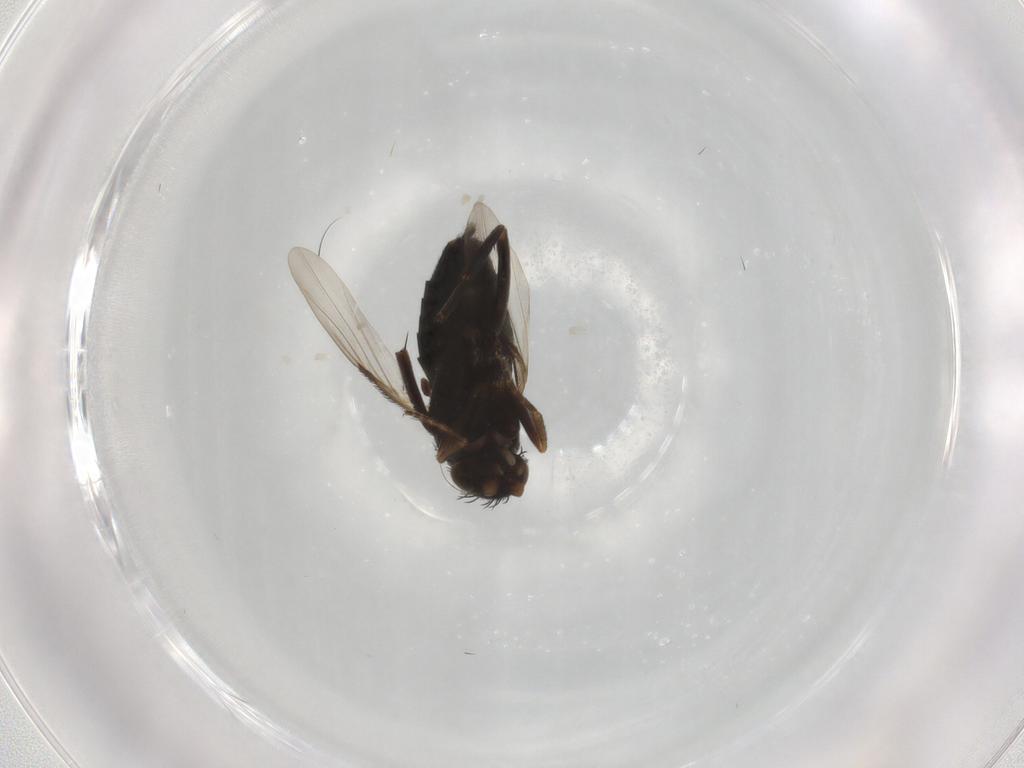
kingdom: Animalia
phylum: Arthropoda
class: Insecta
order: Diptera
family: Phoridae
